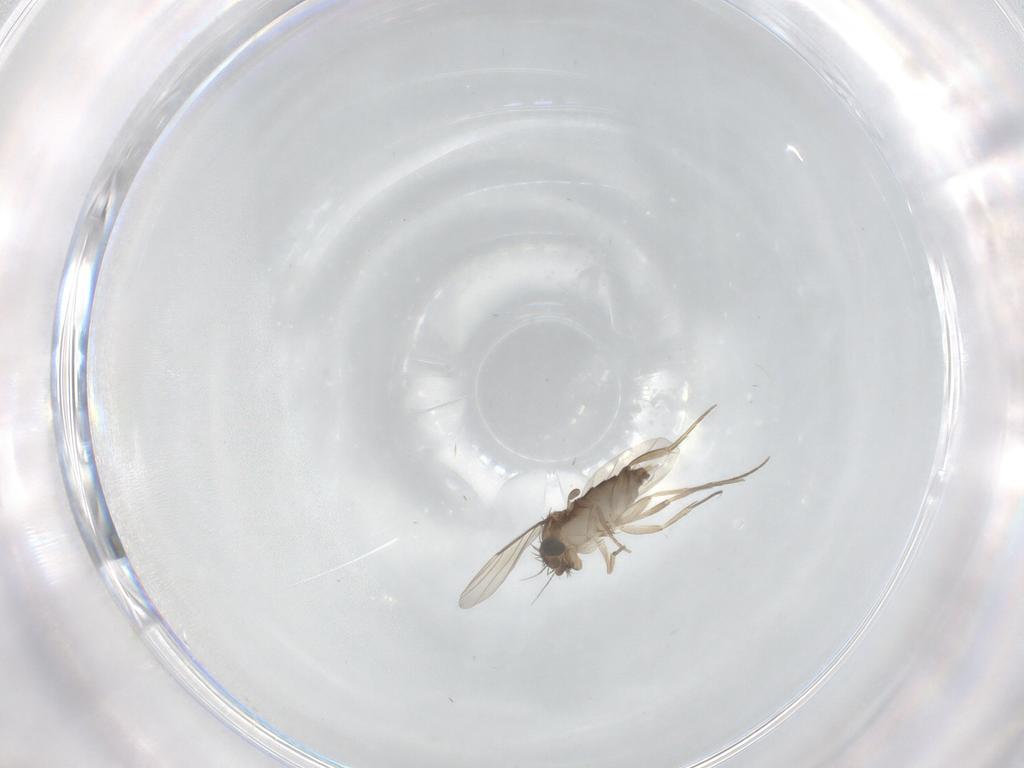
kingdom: Animalia
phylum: Arthropoda
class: Insecta
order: Diptera
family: Phoridae
